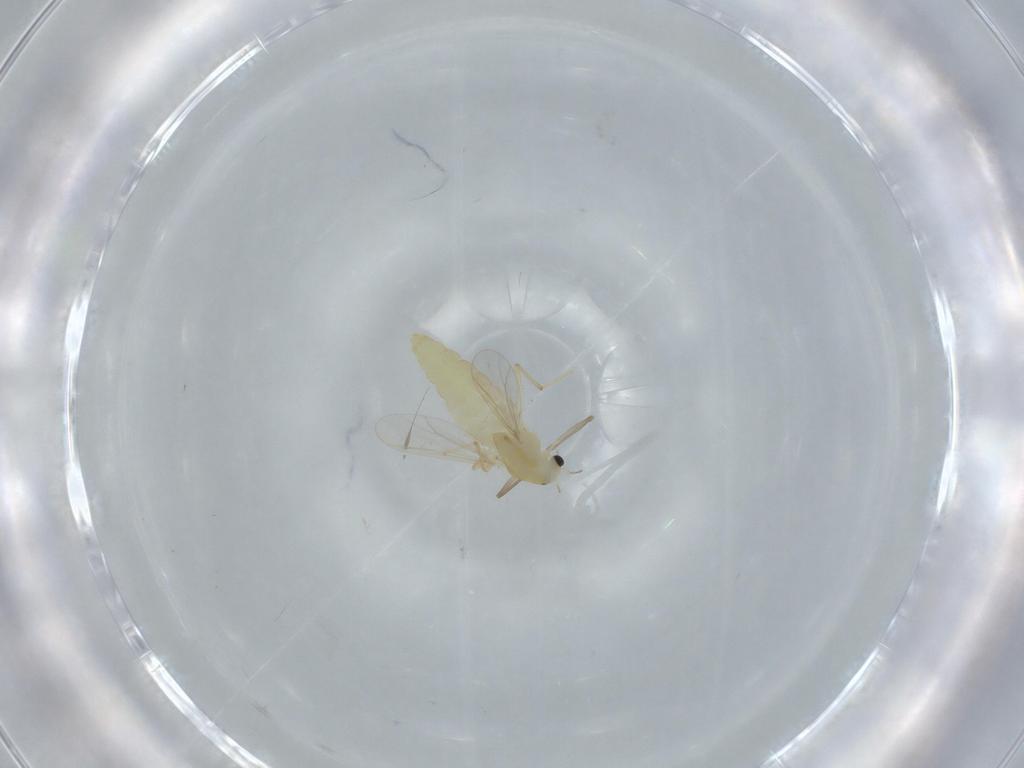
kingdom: Animalia
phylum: Arthropoda
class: Insecta
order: Diptera
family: Chironomidae
